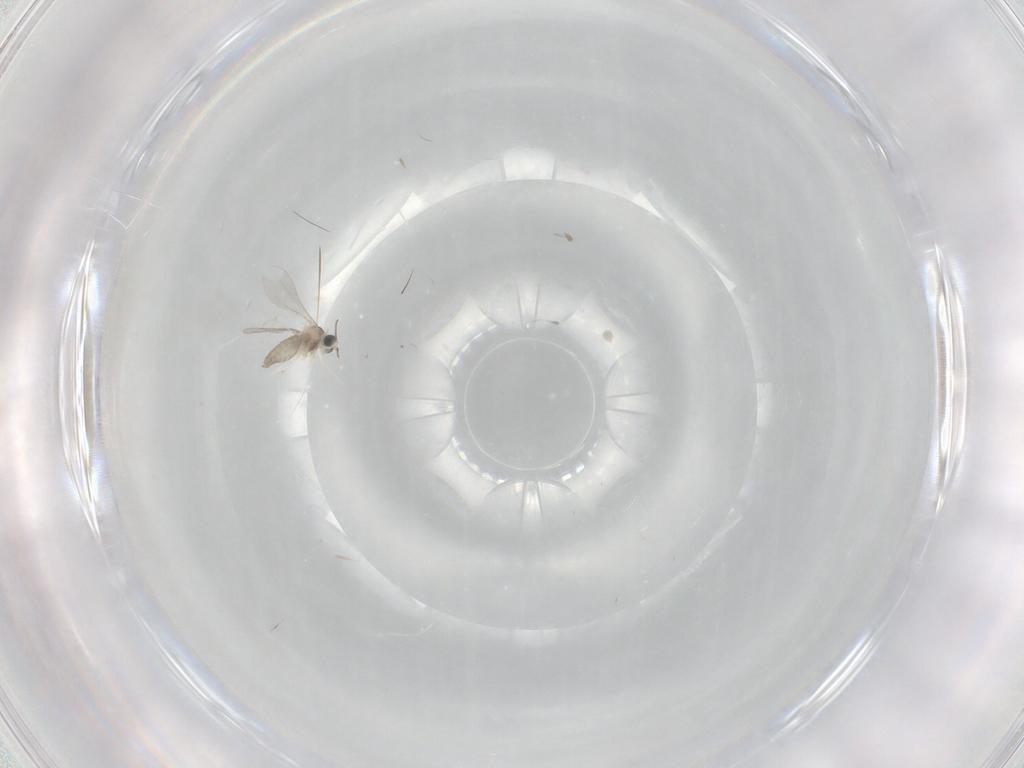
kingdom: Animalia
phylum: Arthropoda
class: Insecta
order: Diptera
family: Cecidomyiidae
